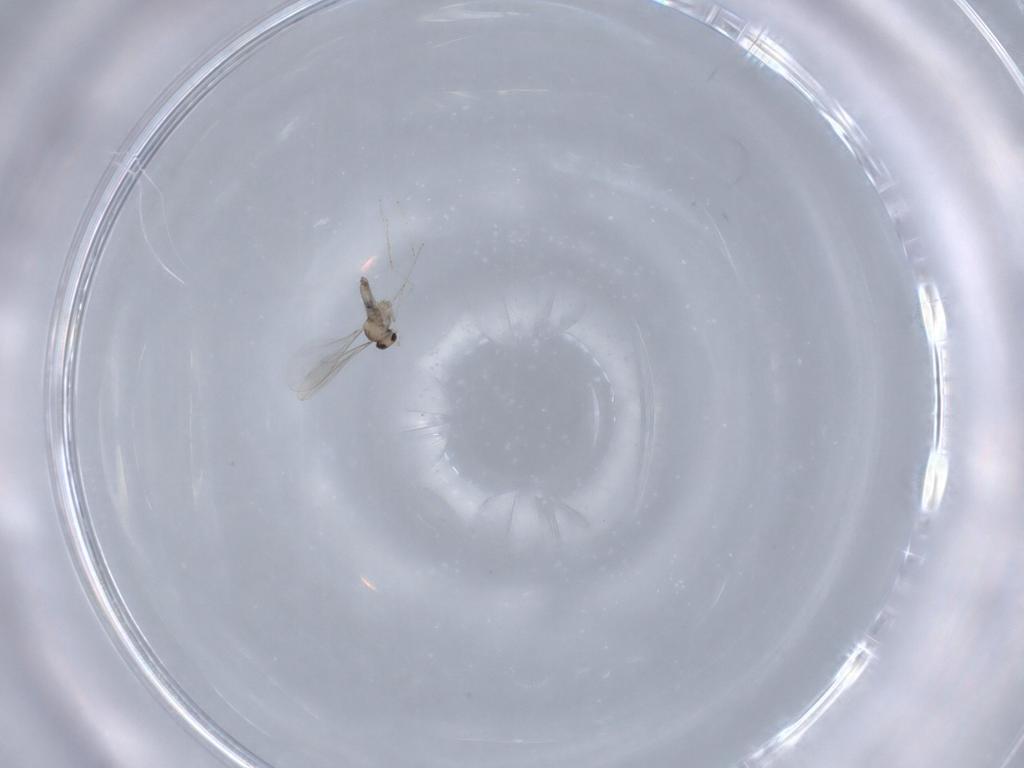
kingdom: Animalia
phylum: Arthropoda
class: Insecta
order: Diptera
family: Cecidomyiidae
